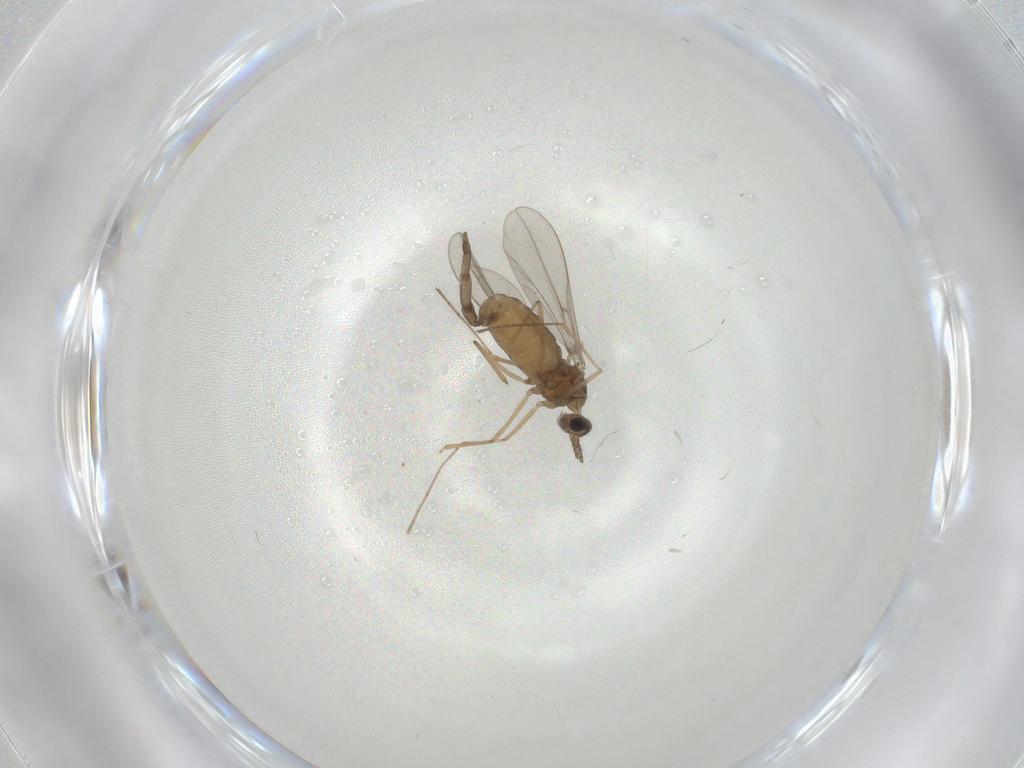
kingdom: Animalia
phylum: Arthropoda
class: Insecta
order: Diptera
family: Cecidomyiidae
